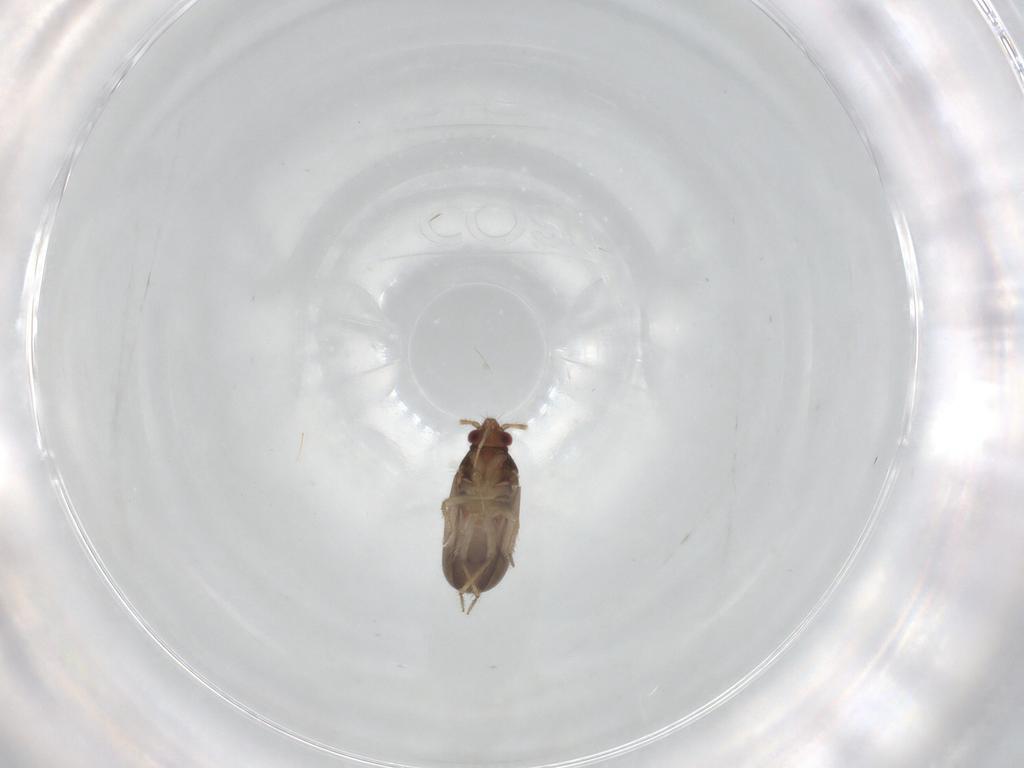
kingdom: Animalia
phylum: Arthropoda
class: Insecta
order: Hemiptera
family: Ceratocombidae
